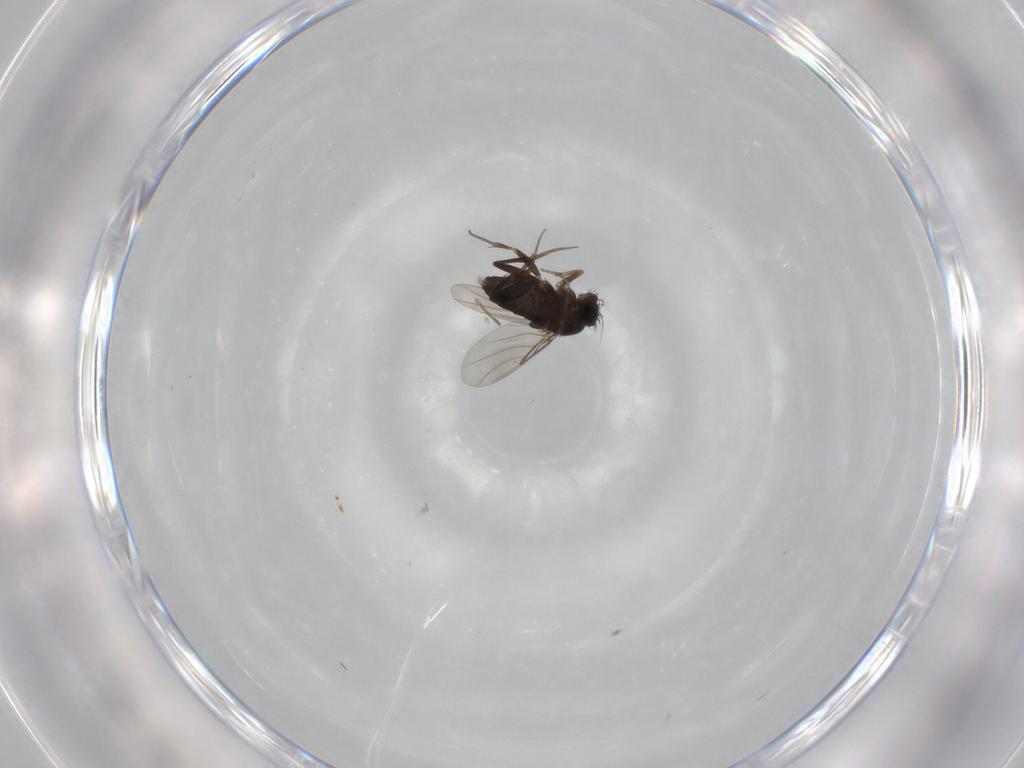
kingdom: Animalia
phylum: Arthropoda
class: Insecta
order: Diptera
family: Phoridae
